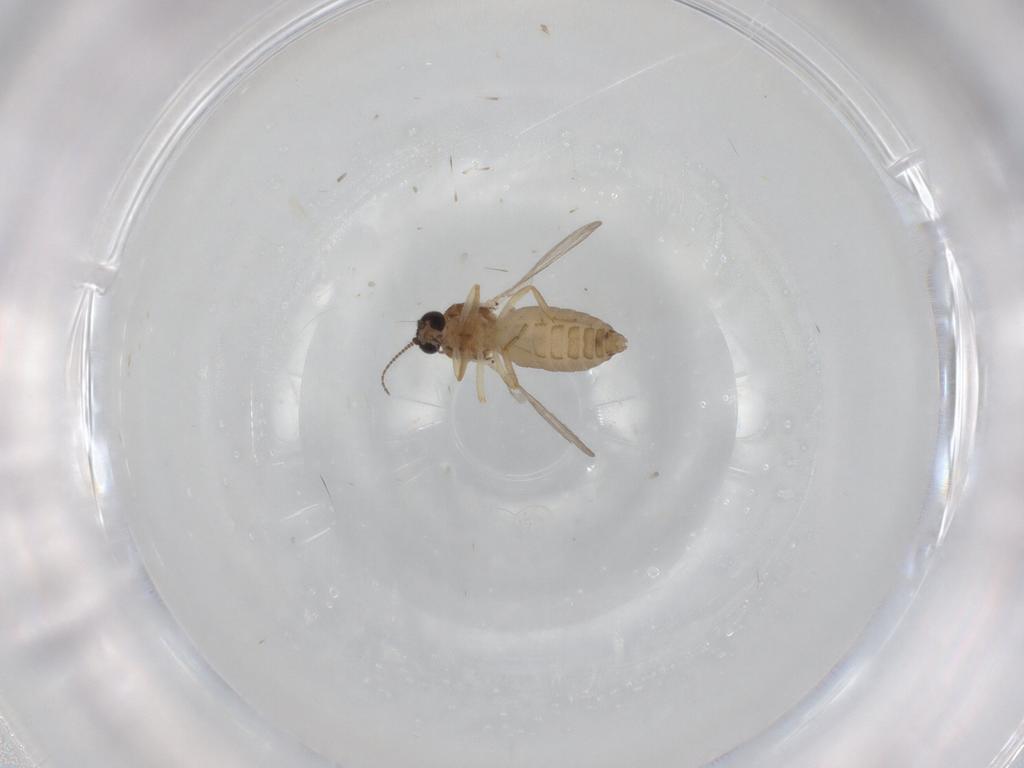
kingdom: Animalia
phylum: Arthropoda
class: Insecta
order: Diptera
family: Ceratopogonidae
